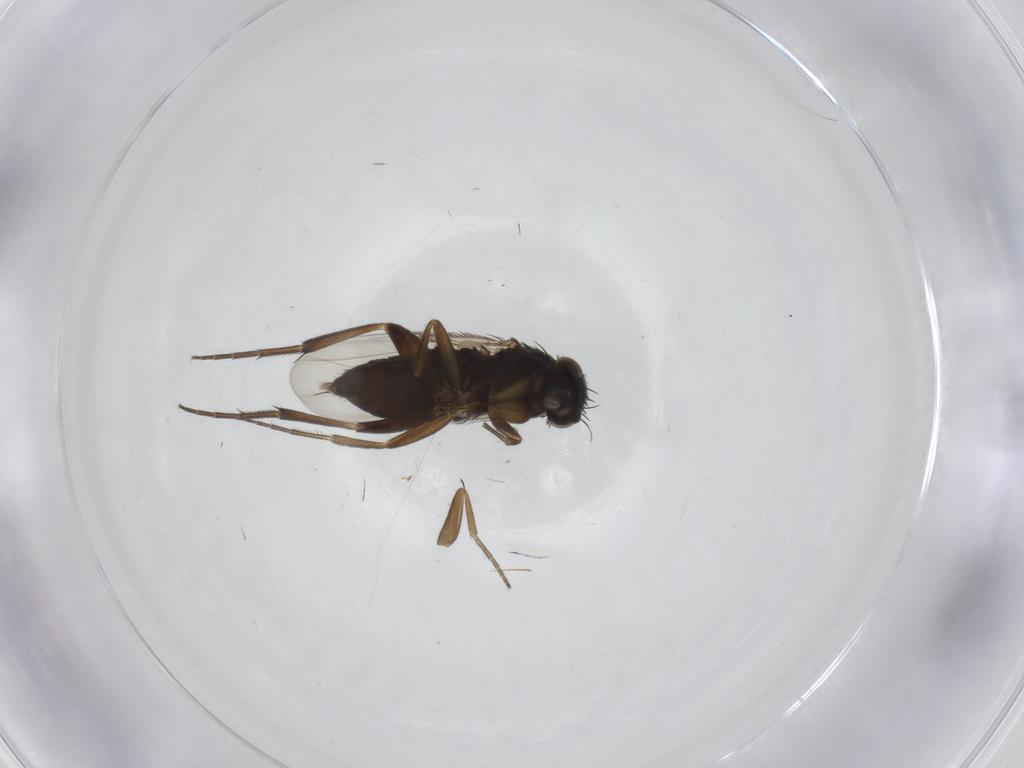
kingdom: Animalia
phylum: Arthropoda
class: Insecta
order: Diptera
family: Phoridae
